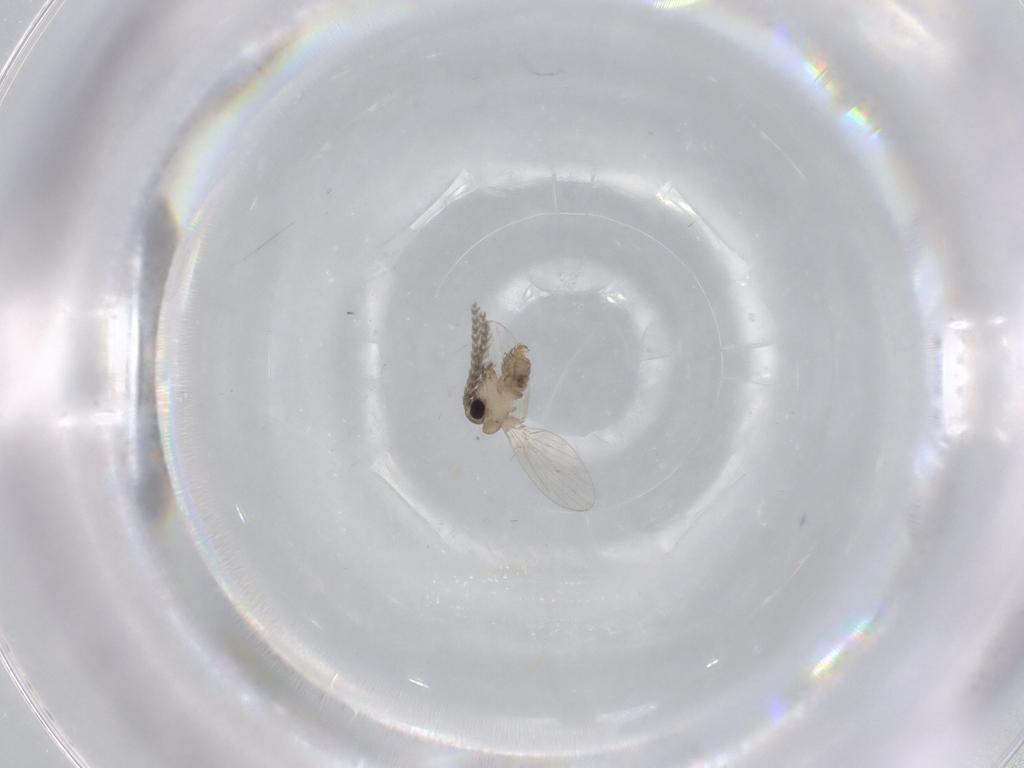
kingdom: Animalia
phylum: Arthropoda
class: Insecta
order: Diptera
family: Psychodidae
